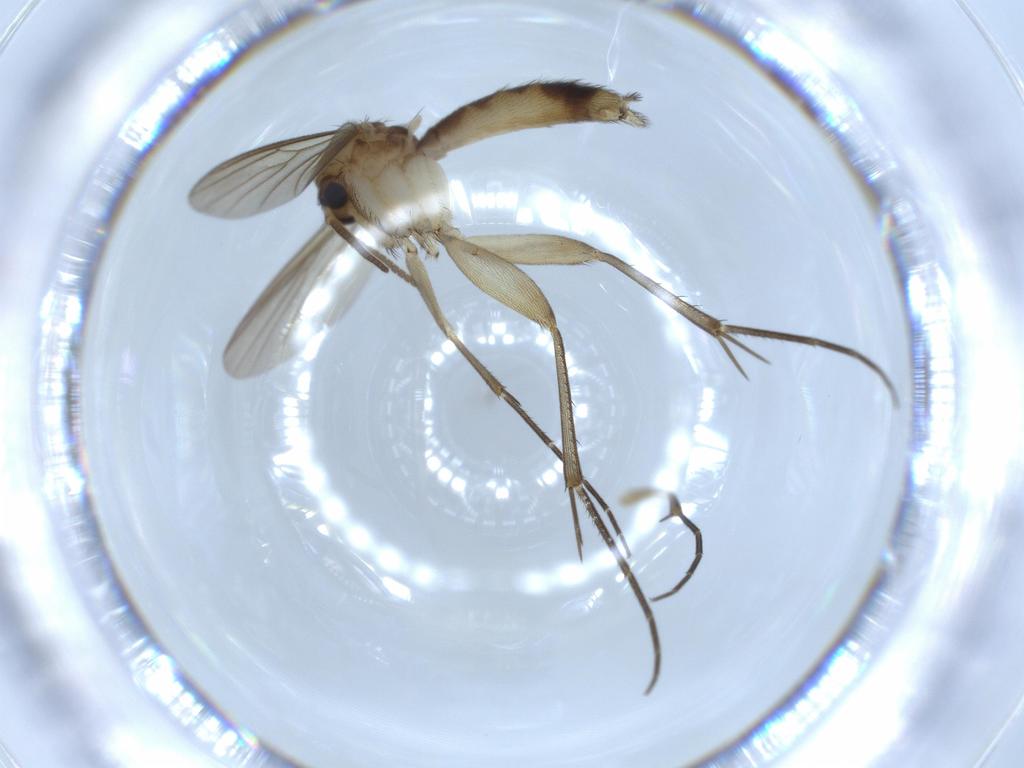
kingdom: Animalia
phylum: Arthropoda
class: Insecta
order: Diptera
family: Mycetophilidae
